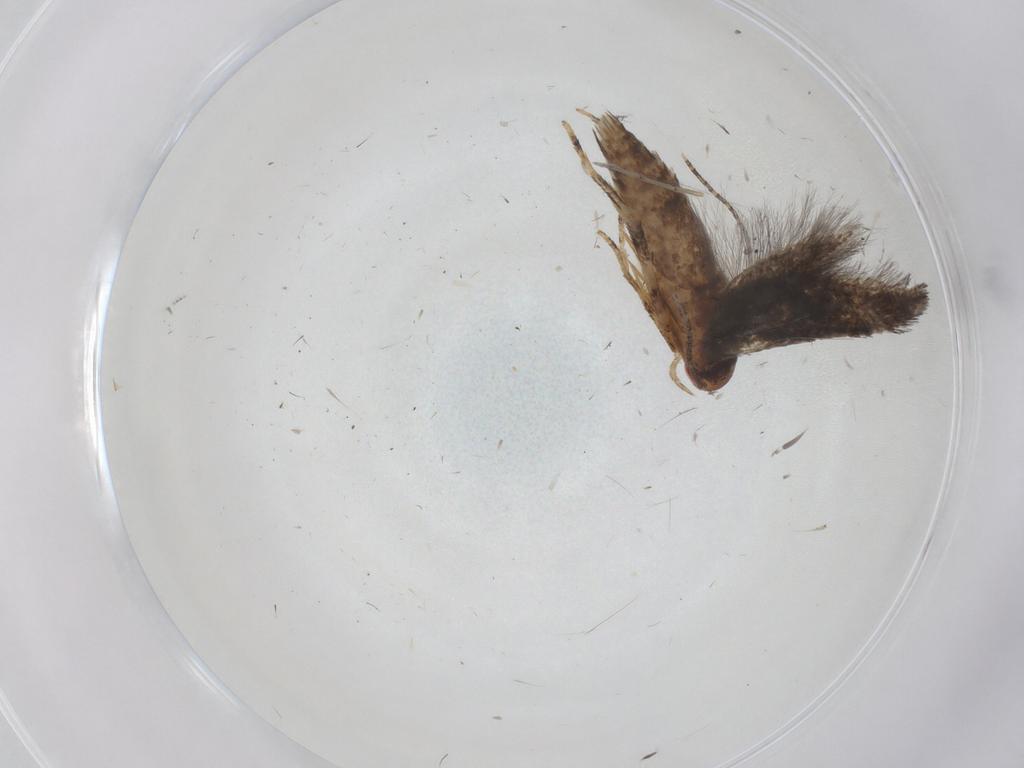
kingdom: Animalia
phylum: Arthropoda
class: Insecta
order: Lepidoptera
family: Momphidae
